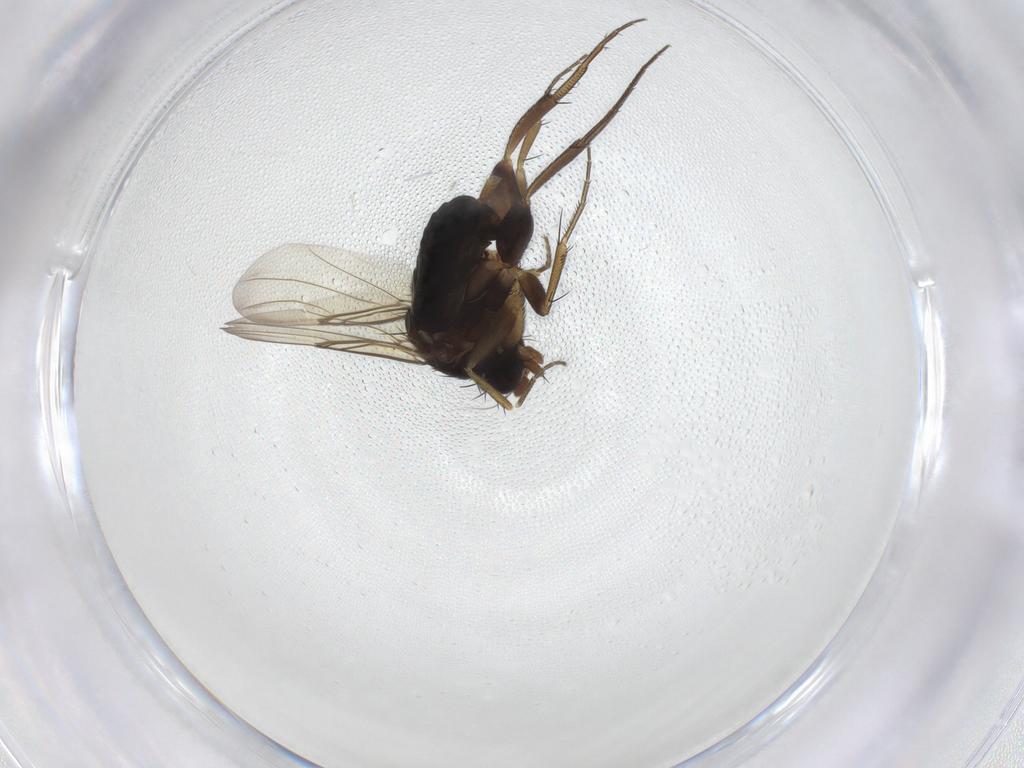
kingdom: Animalia
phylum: Arthropoda
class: Insecta
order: Diptera
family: Phoridae
